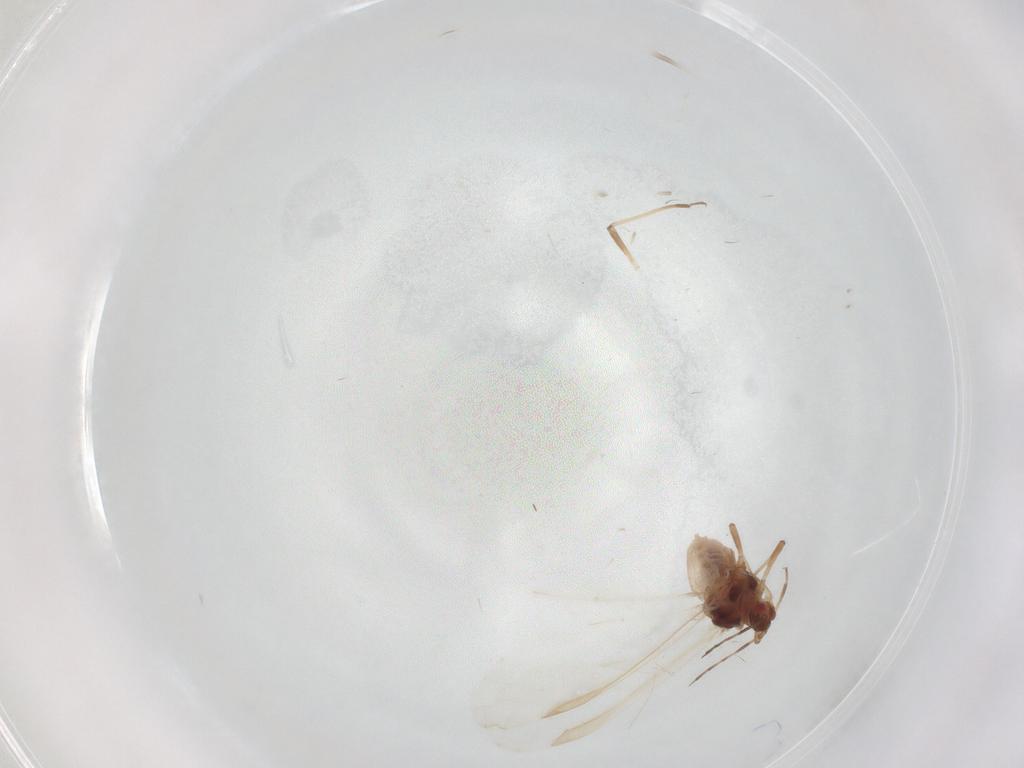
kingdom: Animalia
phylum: Arthropoda
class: Insecta
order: Hemiptera
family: Aphididae
